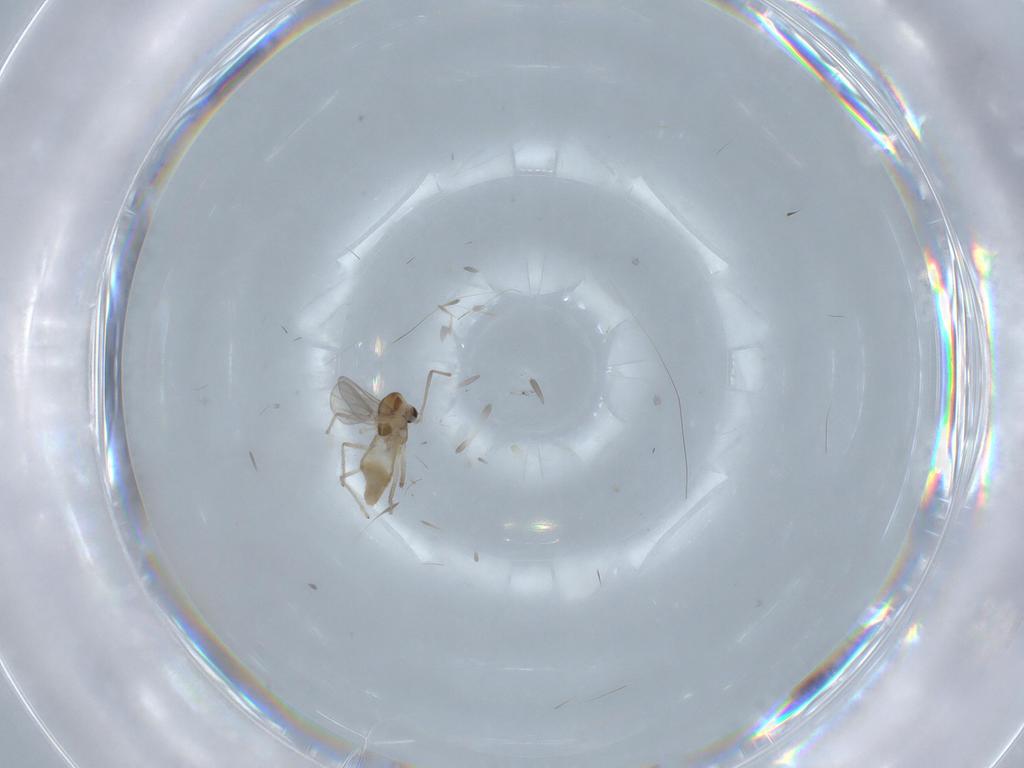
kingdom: Animalia
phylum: Arthropoda
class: Insecta
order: Diptera
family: Chironomidae
